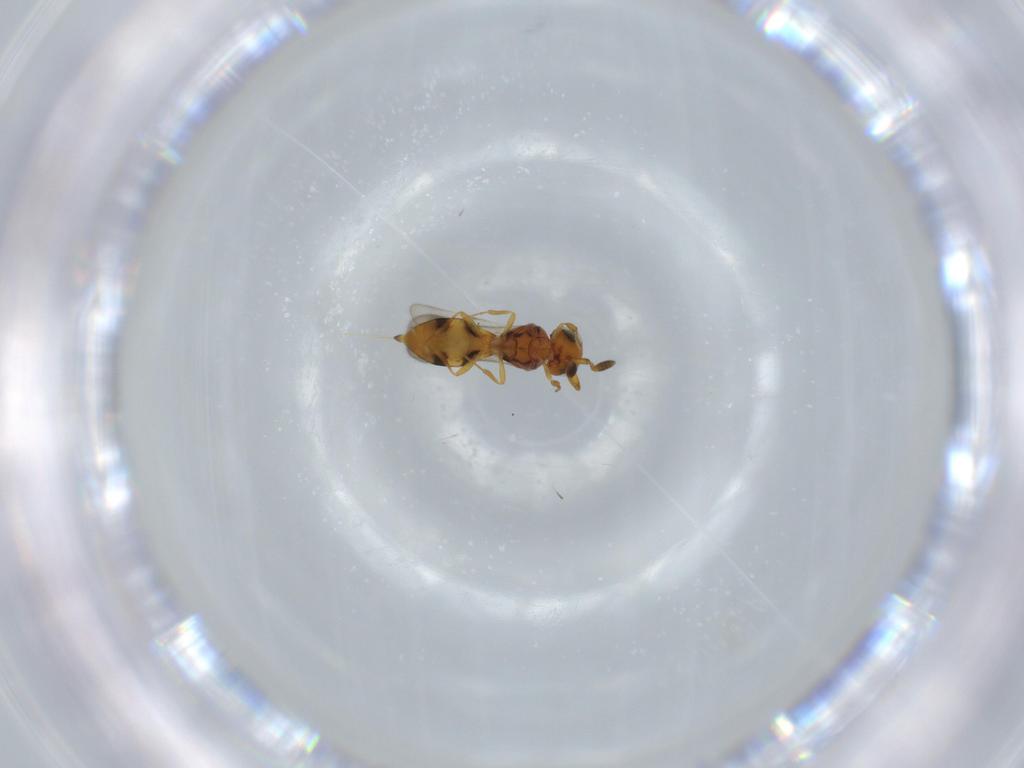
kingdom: Animalia
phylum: Arthropoda
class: Insecta
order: Hymenoptera
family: Scelionidae
